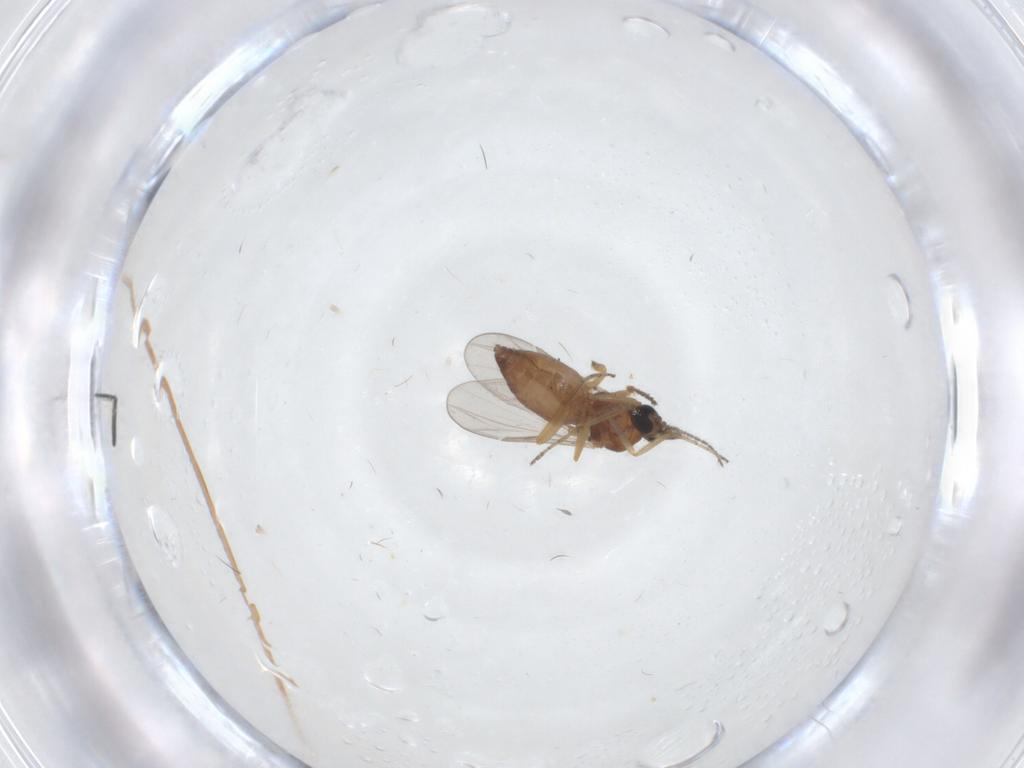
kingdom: Animalia
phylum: Arthropoda
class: Insecta
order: Diptera
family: Ceratopogonidae
